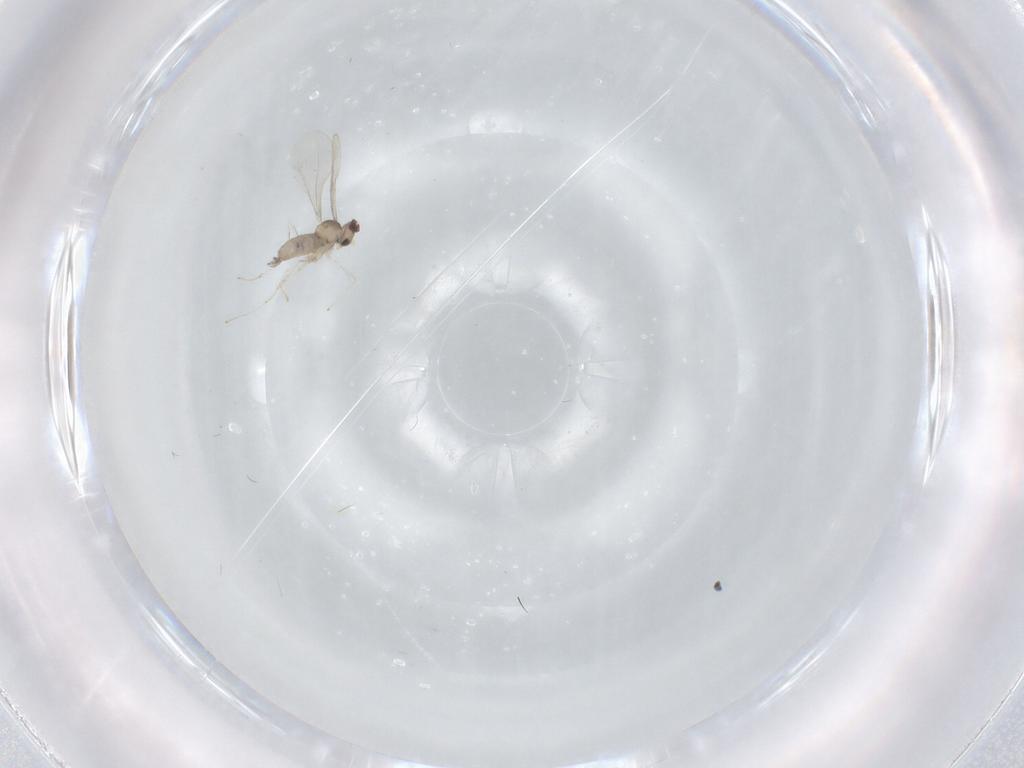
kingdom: Animalia
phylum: Arthropoda
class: Insecta
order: Diptera
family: Cecidomyiidae
